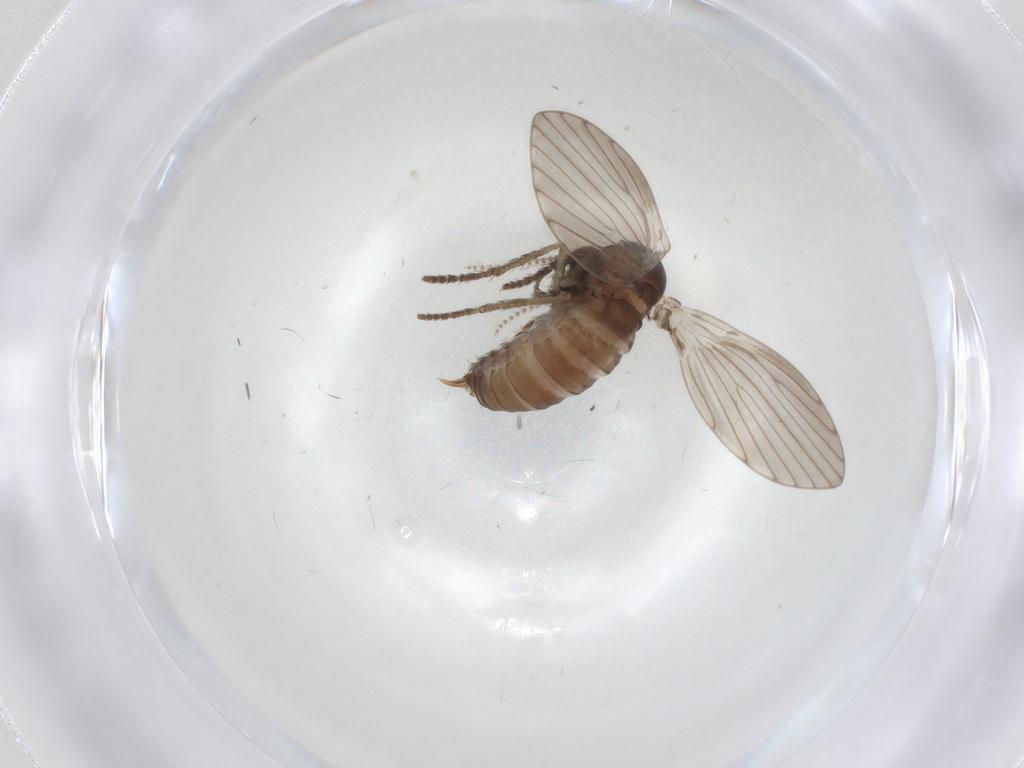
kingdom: Animalia
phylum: Arthropoda
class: Insecta
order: Diptera
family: Psychodidae
